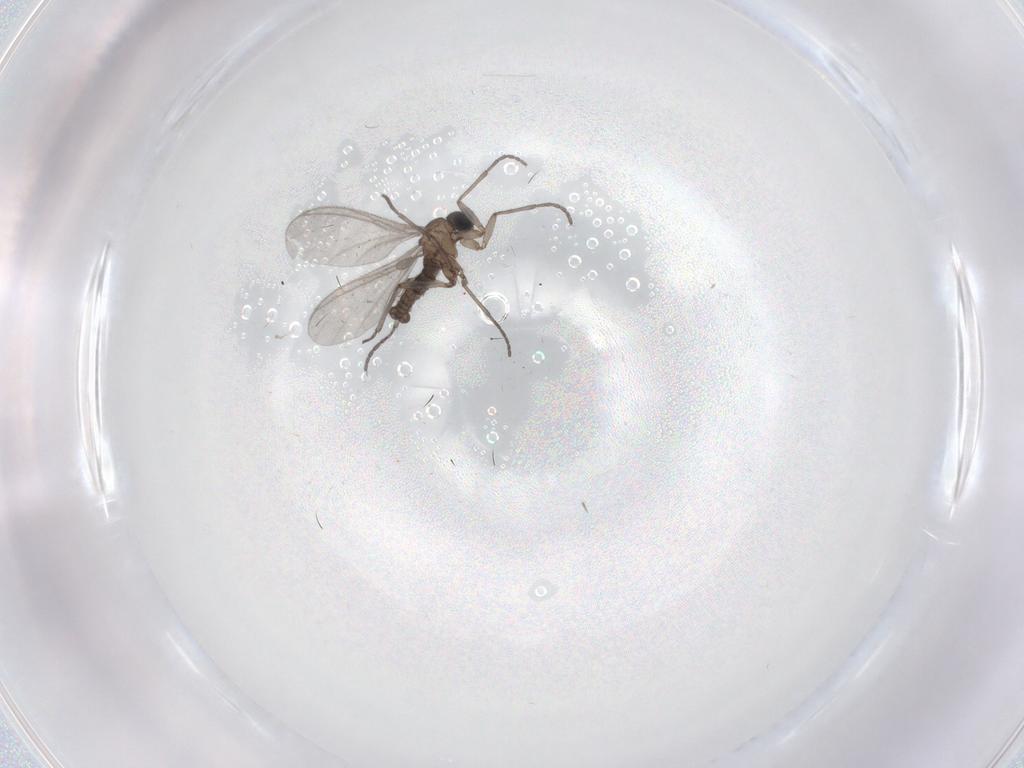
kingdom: Animalia
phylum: Arthropoda
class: Insecta
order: Diptera
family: Sciaridae
